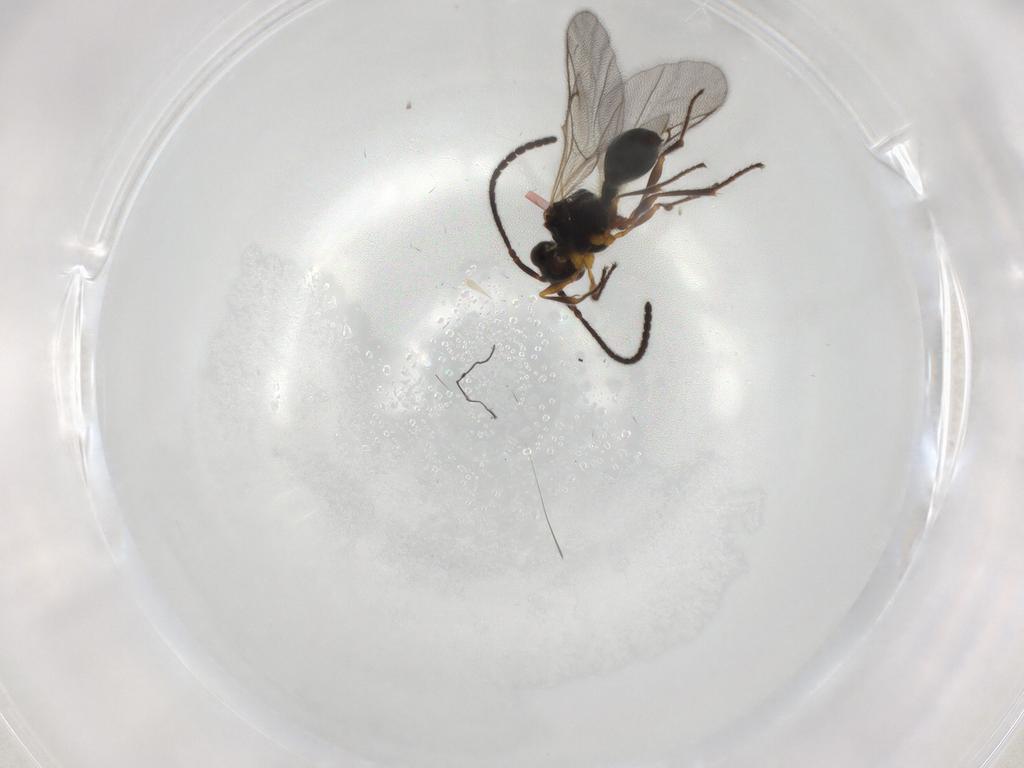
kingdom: Animalia
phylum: Arthropoda
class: Insecta
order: Hymenoptera
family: Diapriidae
